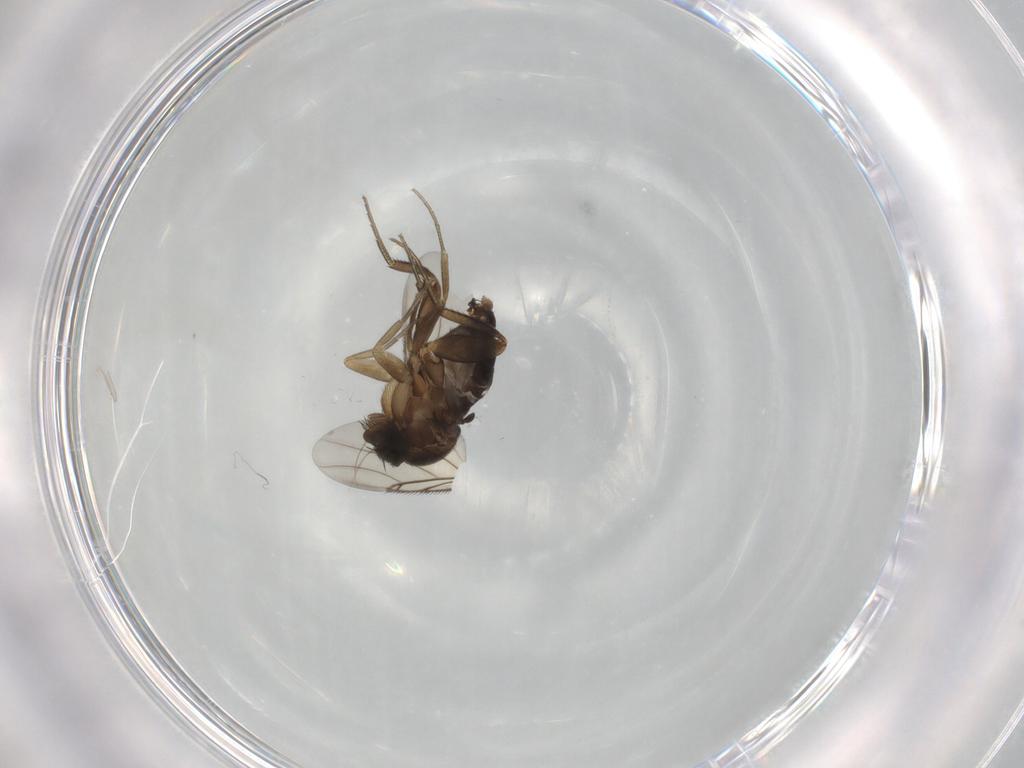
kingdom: Animalia
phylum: Arthropoda
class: Insecta
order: Diptera
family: Phoridae
